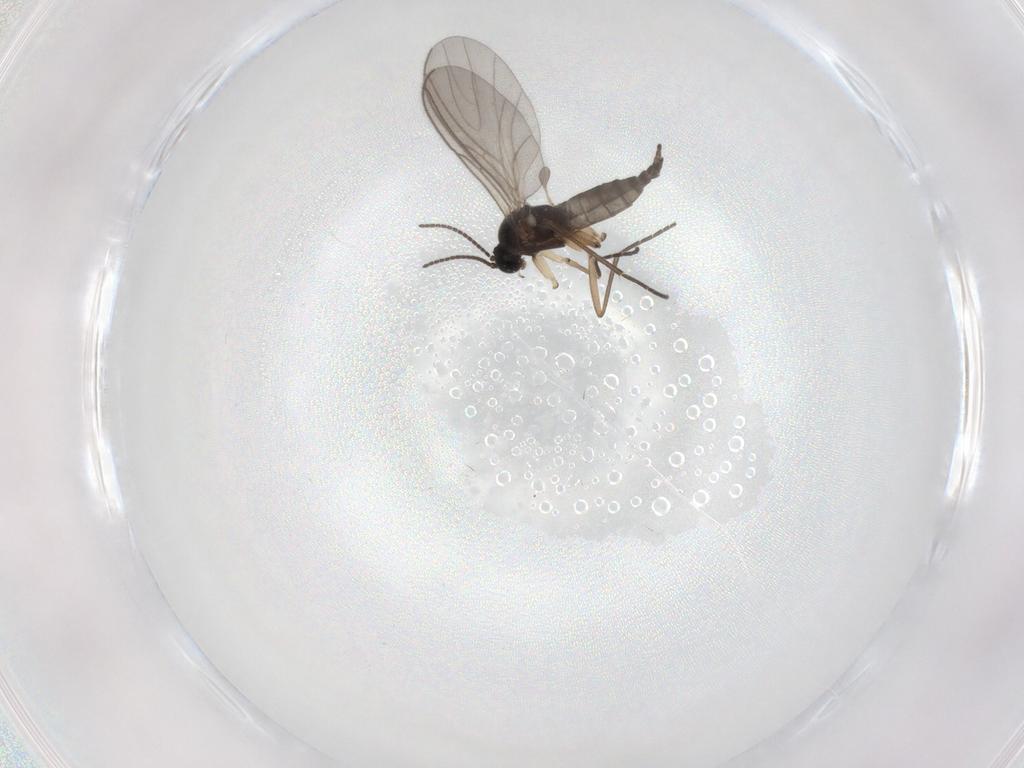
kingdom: Animalia
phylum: Arthropoda
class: Insecta
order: Diptera
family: Sciaridae
